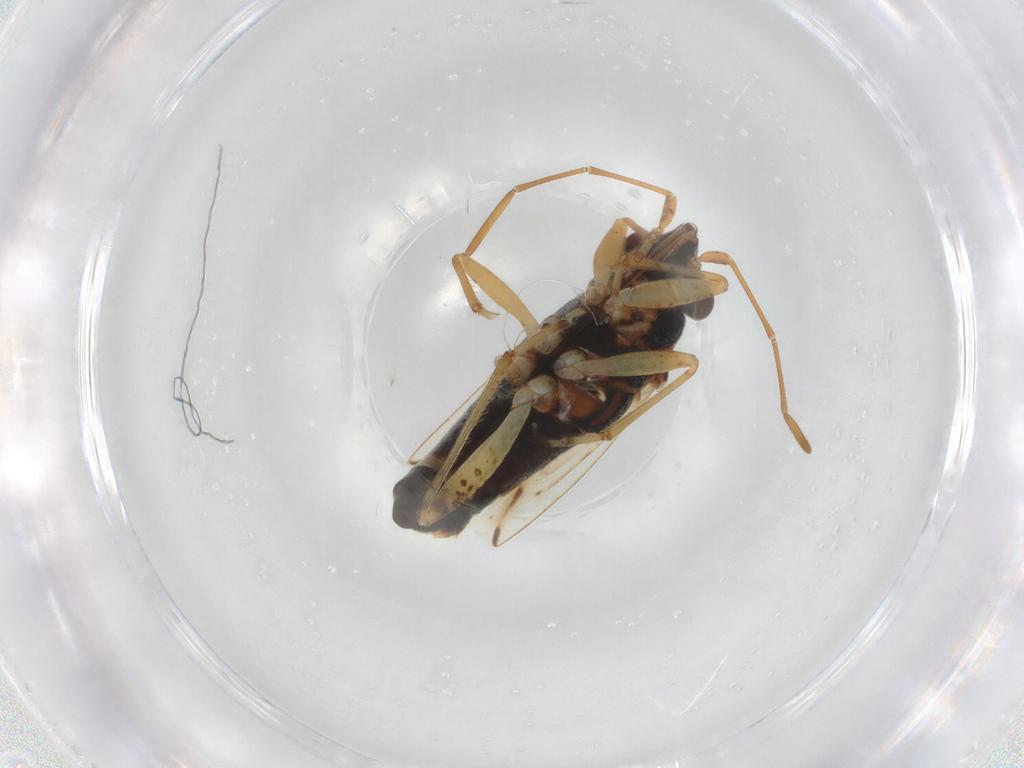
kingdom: Animalia
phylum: Arthropoda
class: Insecta
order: Hemiptera
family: Lygaeidae
